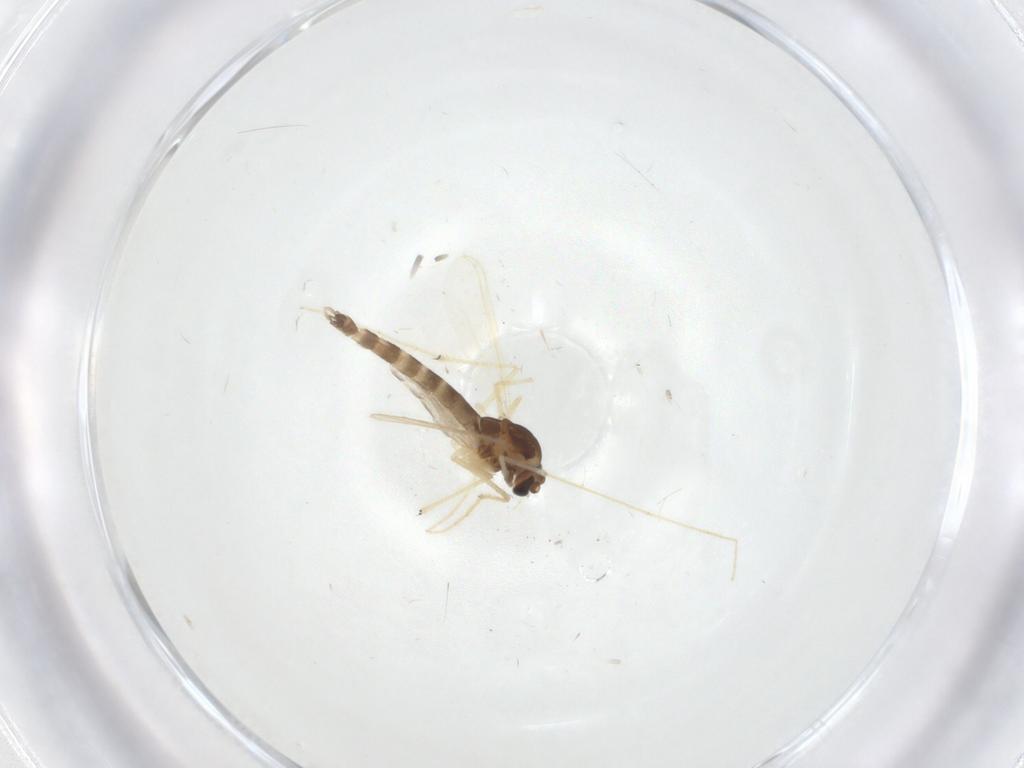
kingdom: Animalia
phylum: Arthropoda
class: Insecta
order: Diptera
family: Chironomidae
